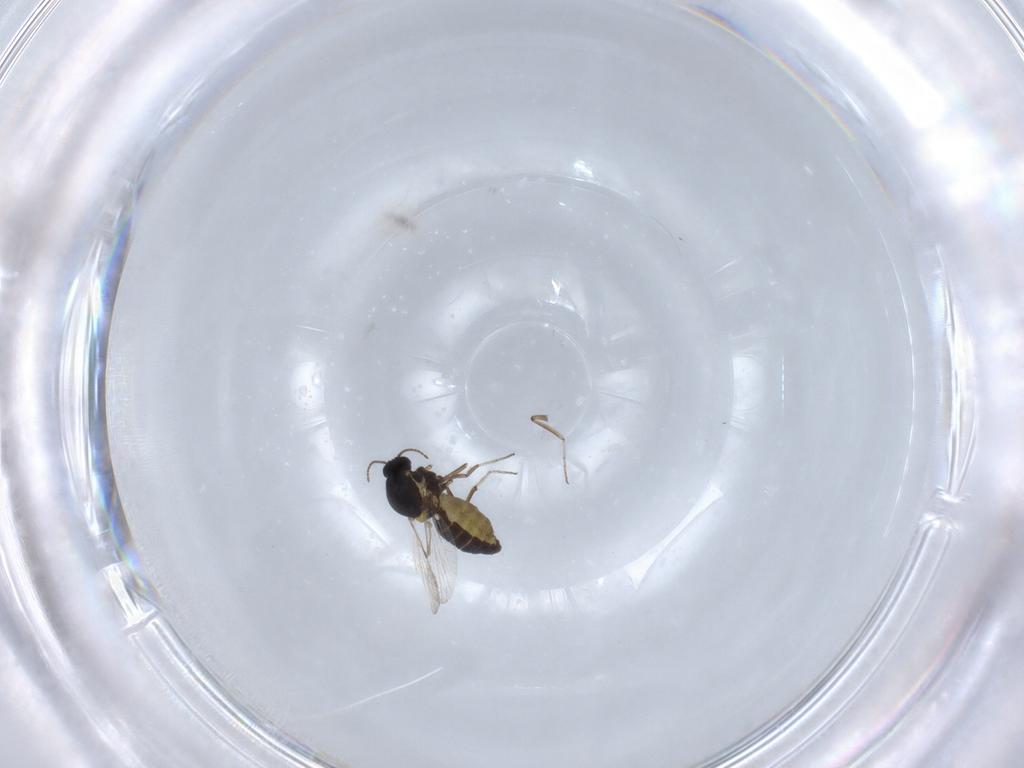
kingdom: Animalia
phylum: Arthropoda
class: Insecta
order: Diptera
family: Ceratopogonidae
